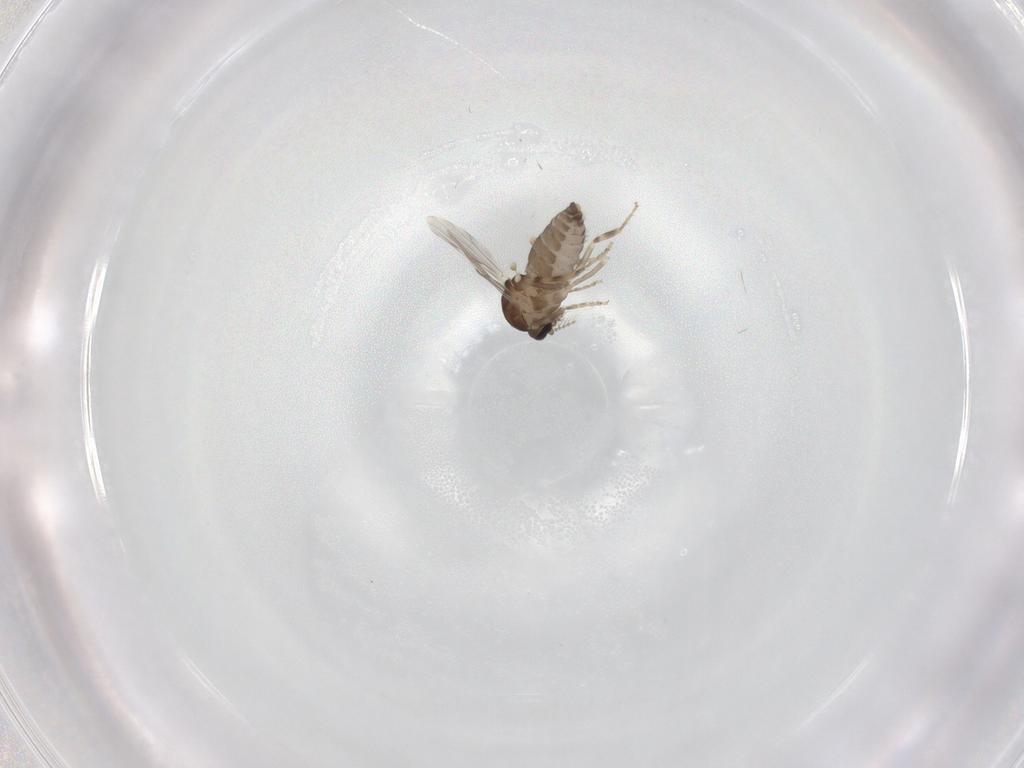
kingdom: Animalia
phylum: Arthropoda
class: Insecta
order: Diptera
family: Ceratopogonidae
